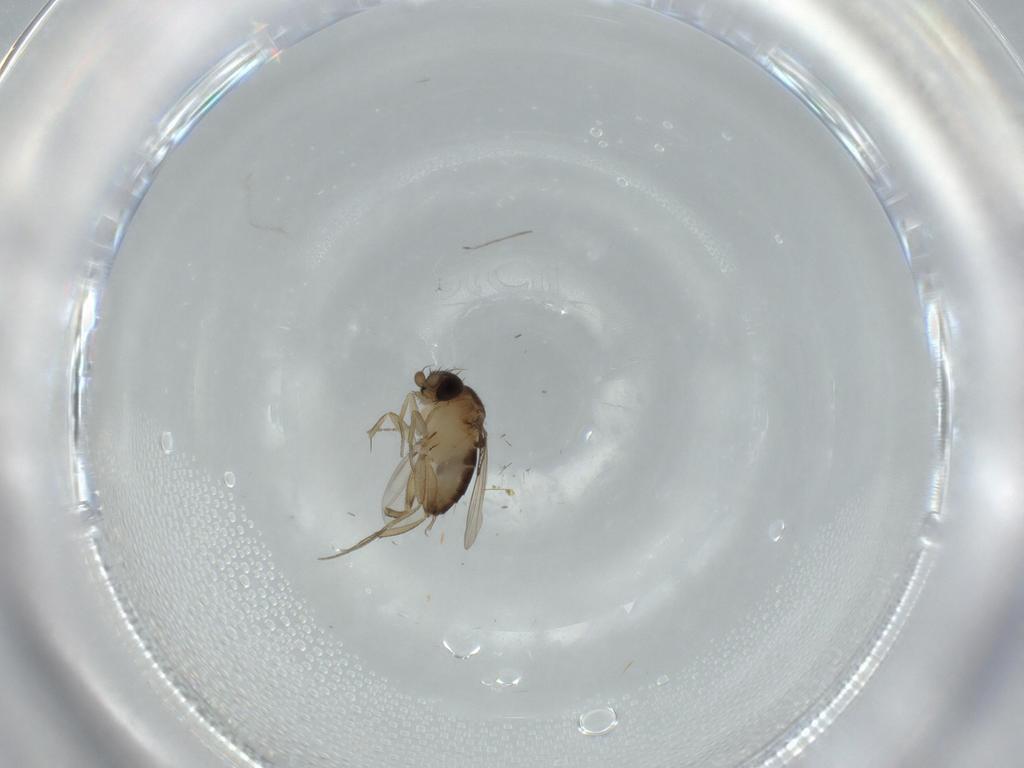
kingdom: Animalia
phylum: Arthropoda
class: Insecta
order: Diptera
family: Phoridae
